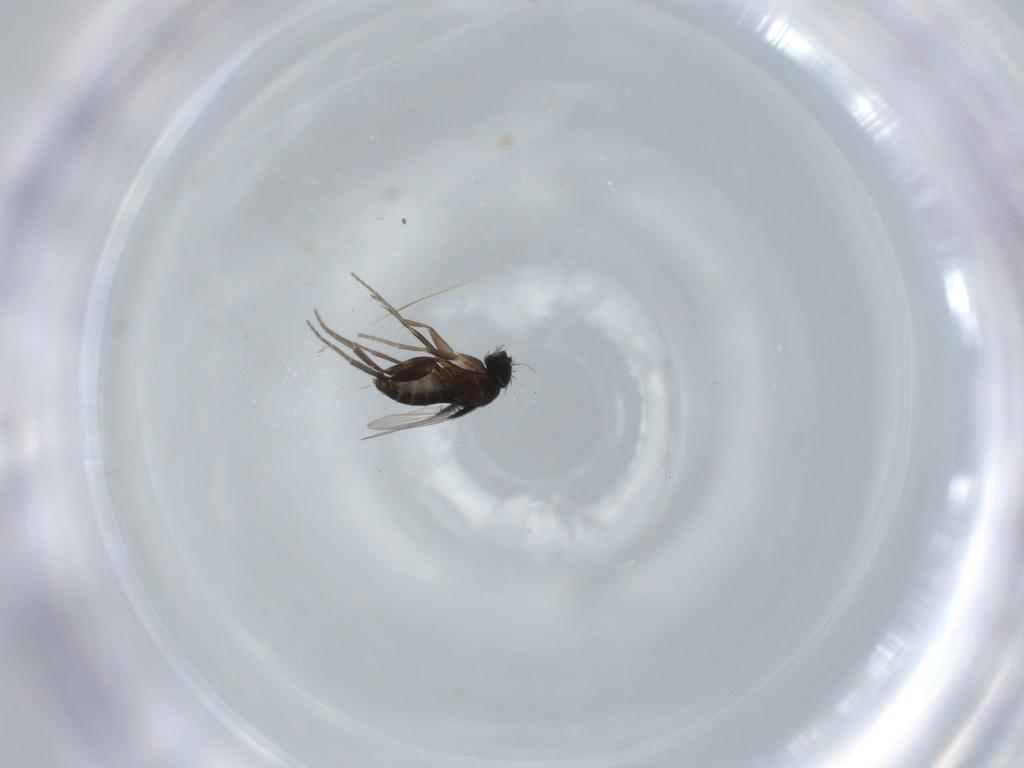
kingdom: Animalia
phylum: Arthropoda
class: Insecta
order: Diptera
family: Phoridae
